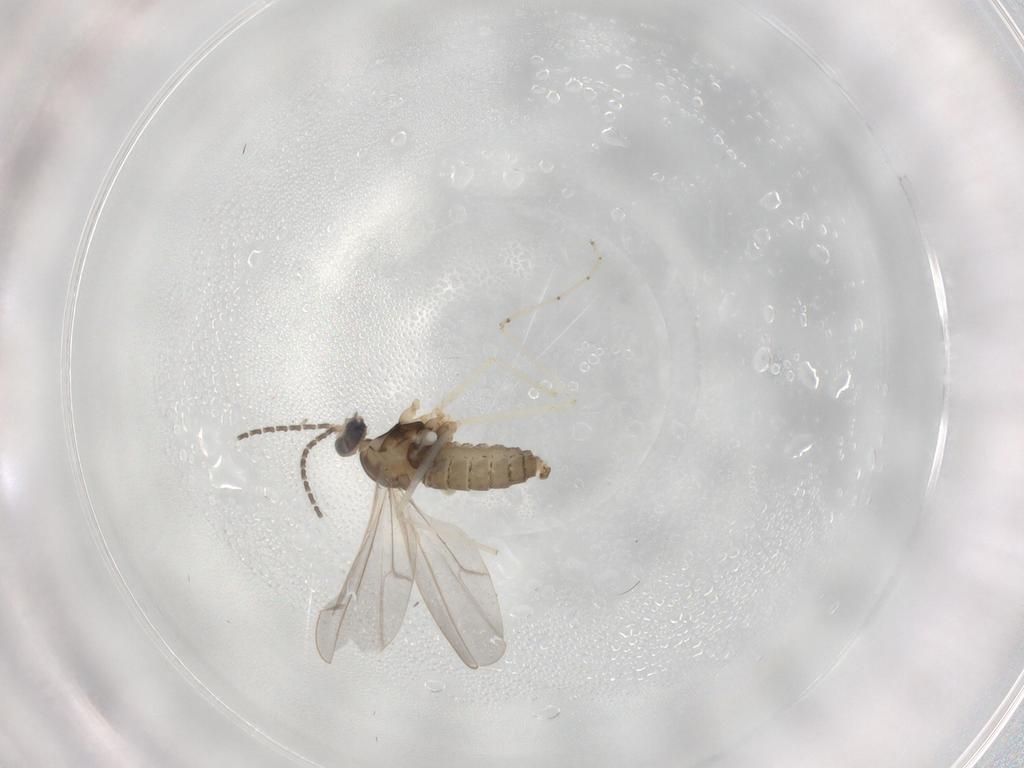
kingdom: Animalia
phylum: Arthropoda
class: Insecta
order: Diptera
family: Cecidomyiidae
